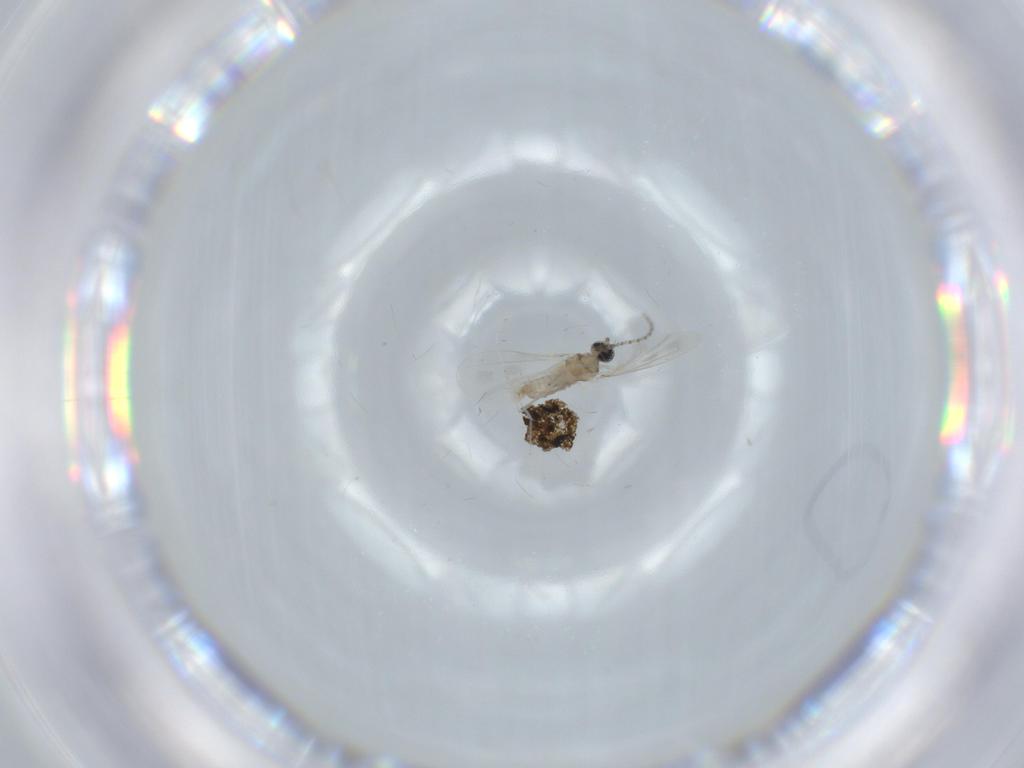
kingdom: Animalia
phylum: Arthropoda
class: Insecta
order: Diptera
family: Cecidomyiidae
